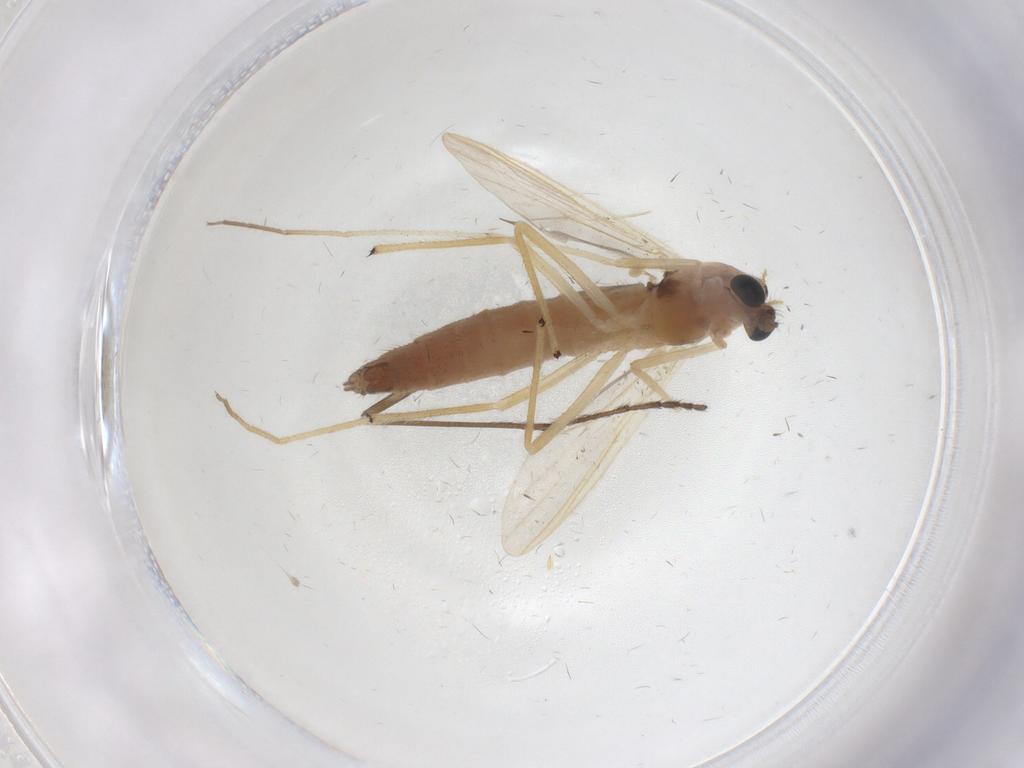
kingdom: Animalia
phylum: Arthropoda
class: Insecta
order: Diptera
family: Limoniidae
